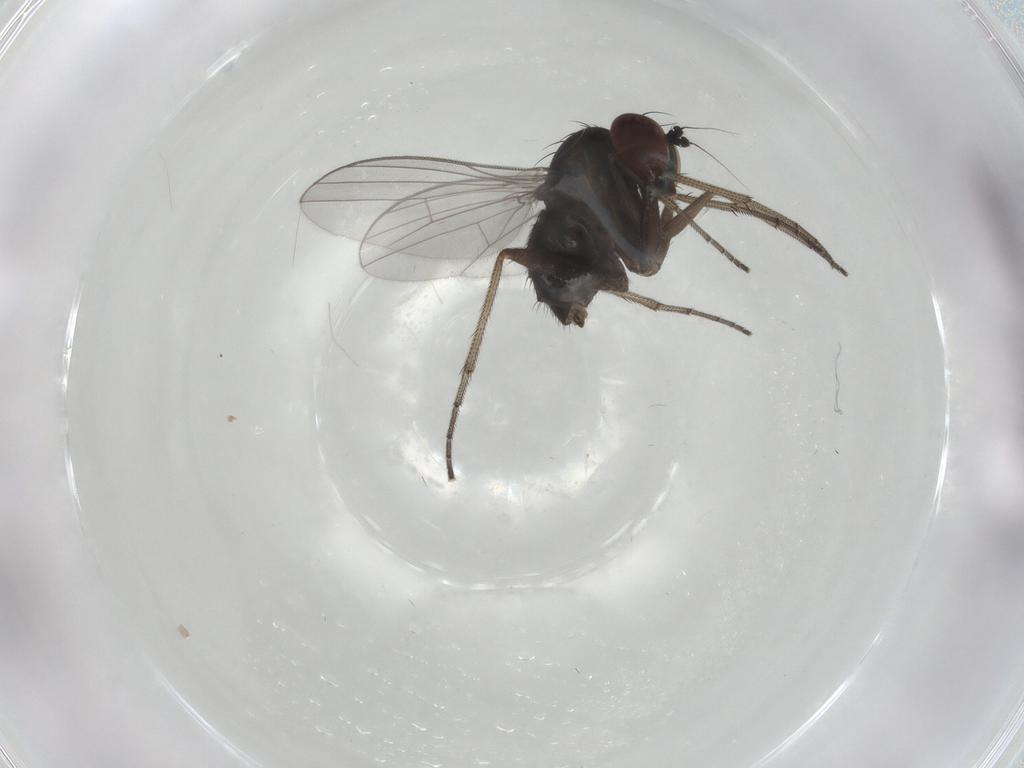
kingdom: Animalia
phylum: Arthropoda
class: Insecta
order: Diptera
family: Dolichopodidae
